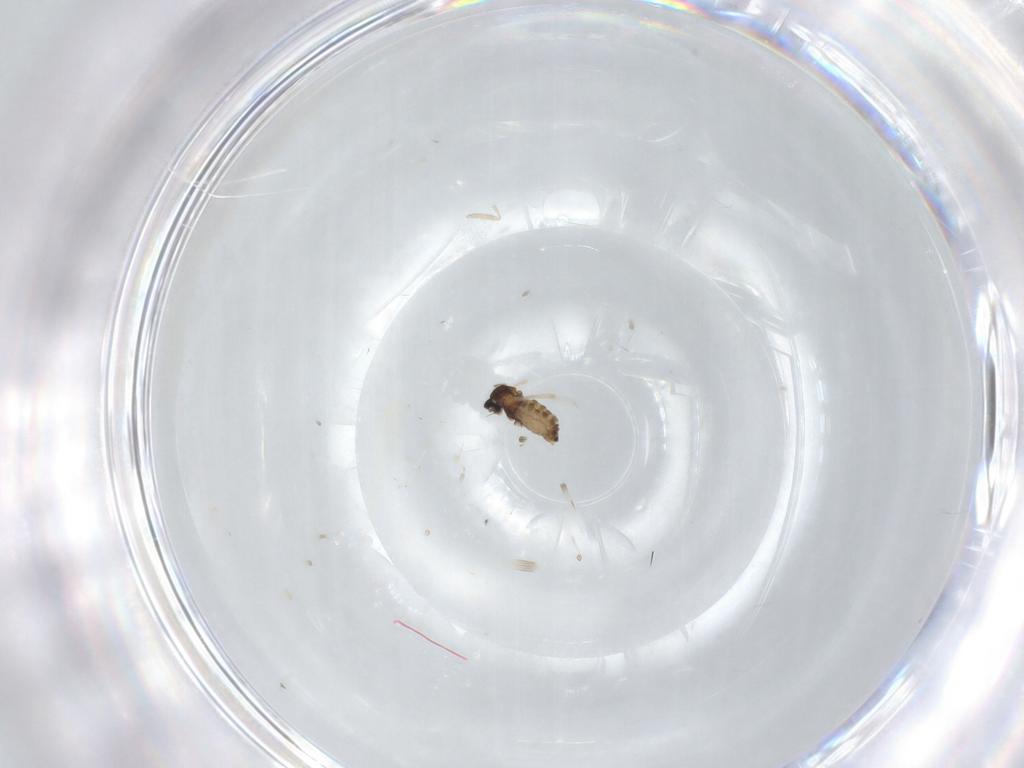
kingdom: Animalia
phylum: Arthropoda
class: Insecta
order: Diptera
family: Cecidomyiidae
